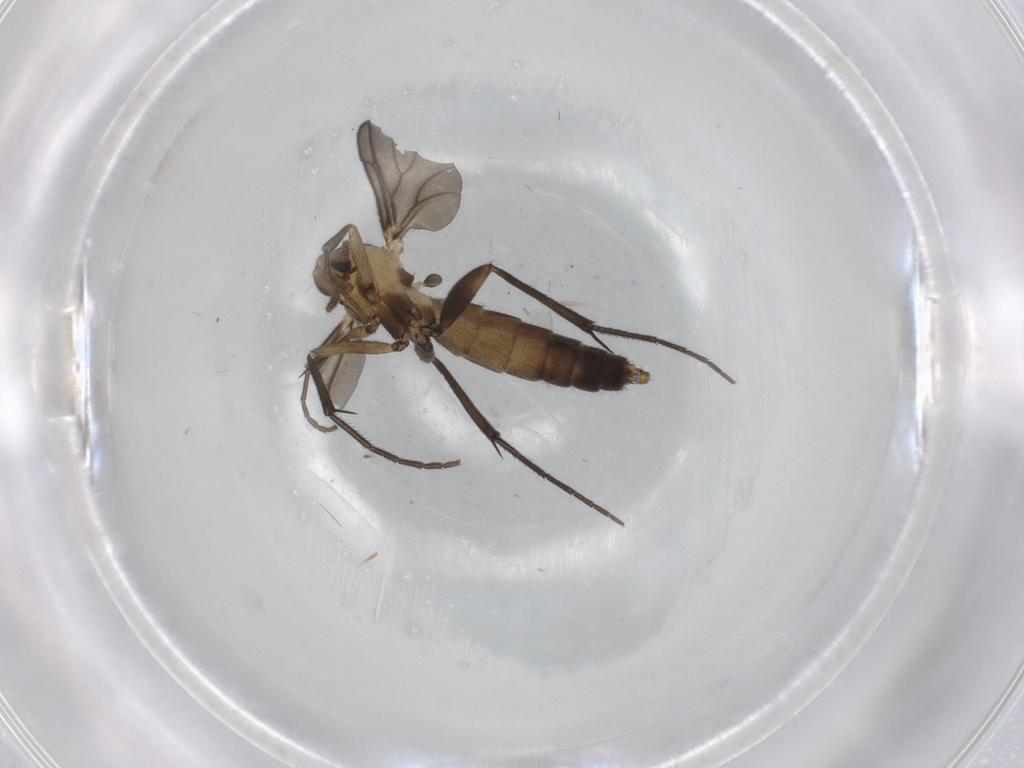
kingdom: Animalia
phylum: Arthropoda
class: Insecta
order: Diptera
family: Mycetophilidae
